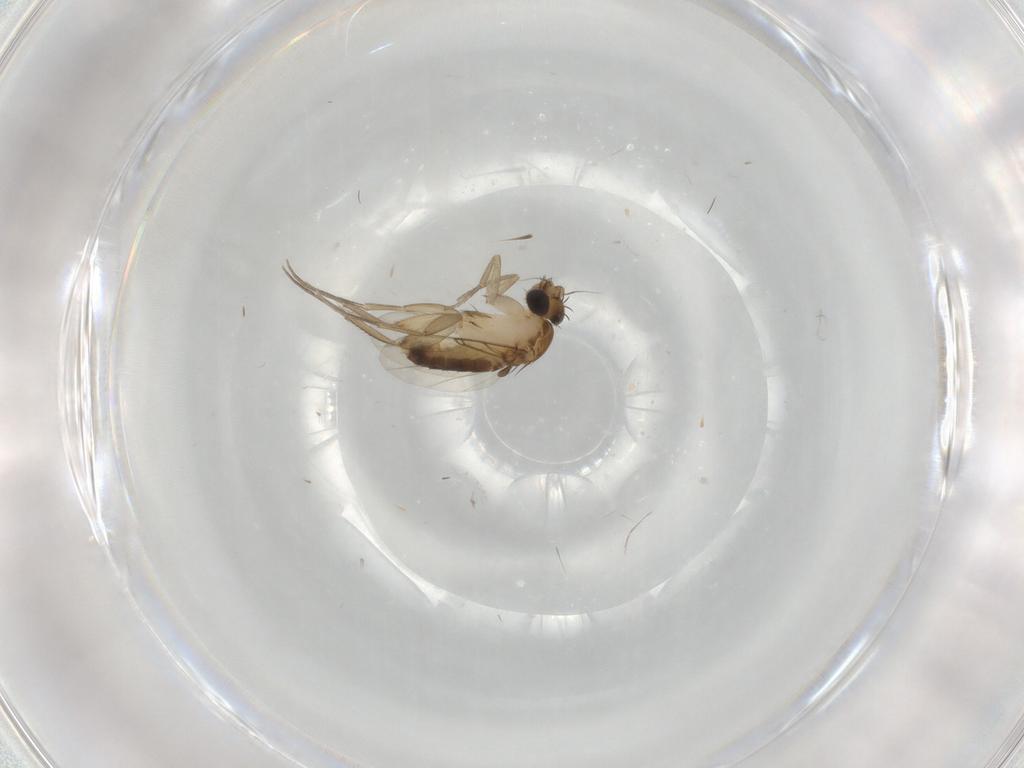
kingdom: Animalia
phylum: Arthropoda
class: Insecta
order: Diptera
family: Phoridae
